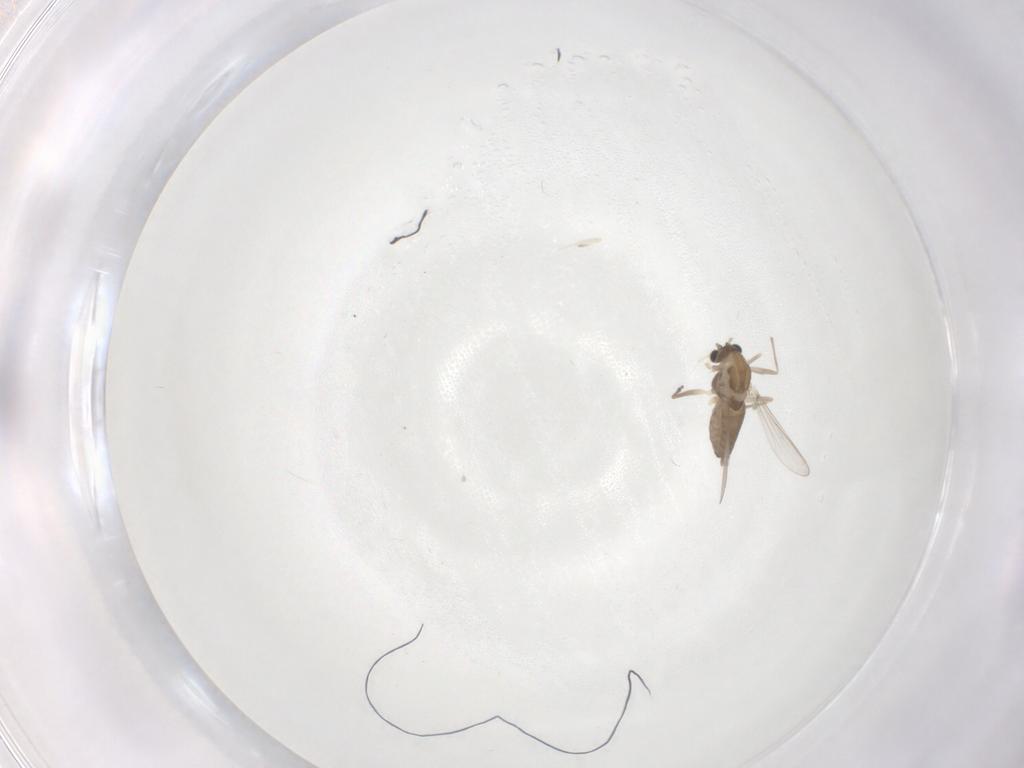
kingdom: Animalia
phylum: Arthropoda
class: Insecta
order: Diptera
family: Chironomidae
